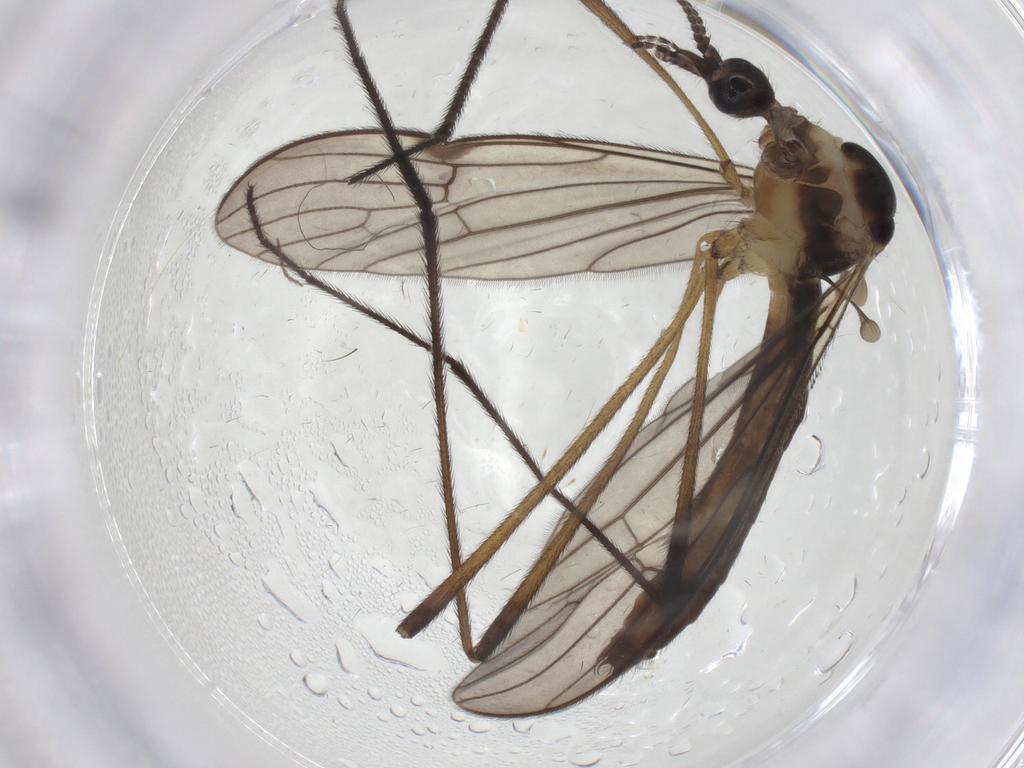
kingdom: Animalia
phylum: Arthropoda
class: Insecta
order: Diptera
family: Limoniidae
